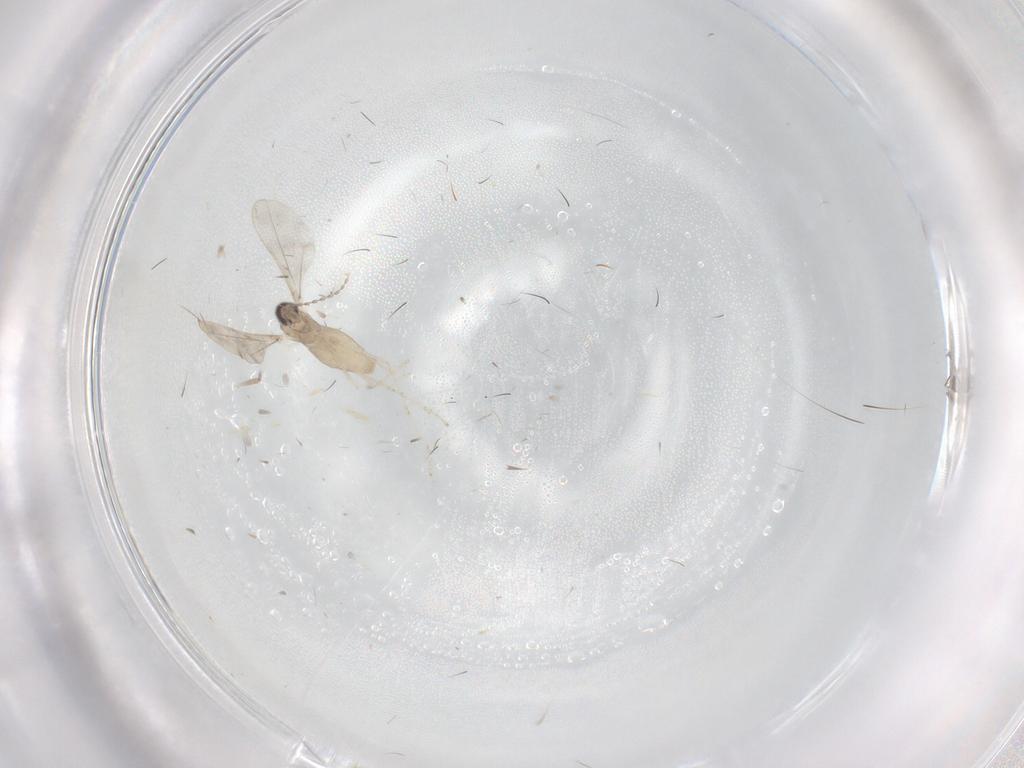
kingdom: Animalia
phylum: Arthropoda
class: Insecta
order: Diptera
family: Cecidomyiidae
